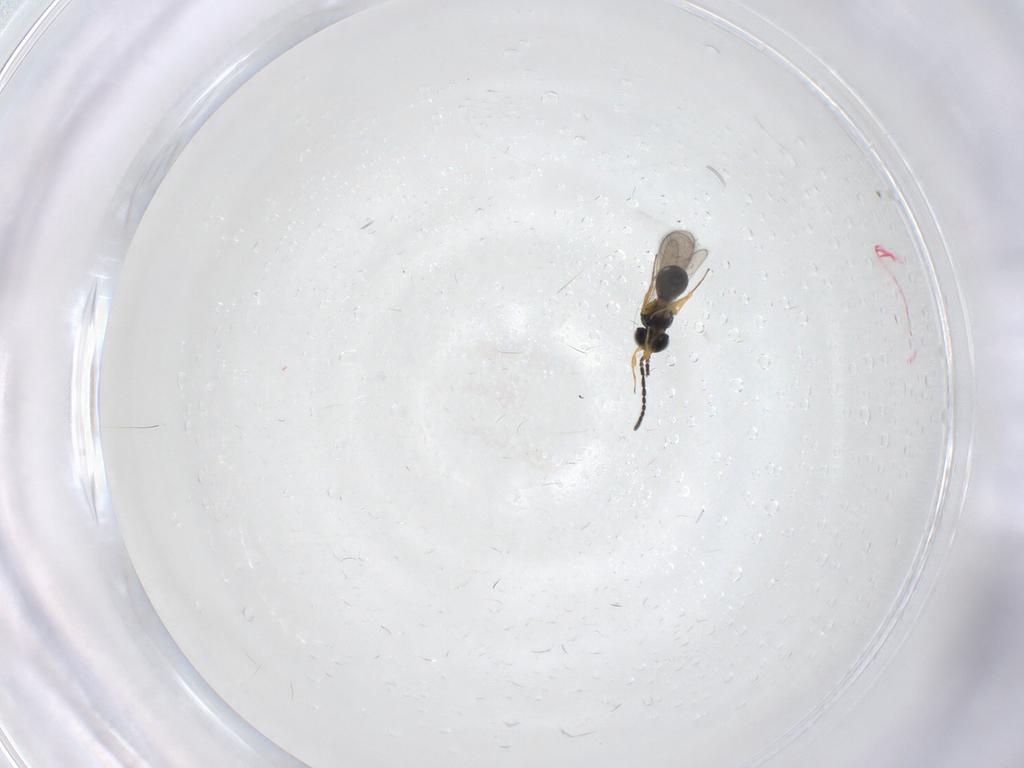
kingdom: Animalia
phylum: Arthropoda
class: Insecta
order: Hymenoptera
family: Scelionidae
